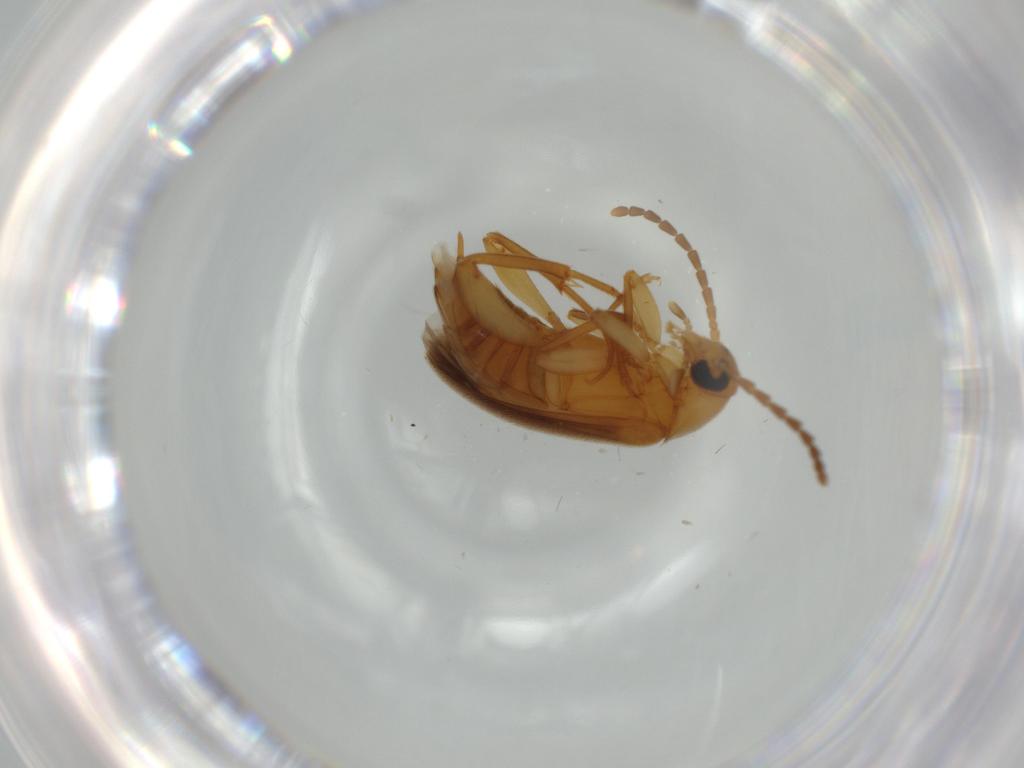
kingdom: Animalia
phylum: Arthropoda
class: Insecta
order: Coleoptera
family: Scraptiidae
